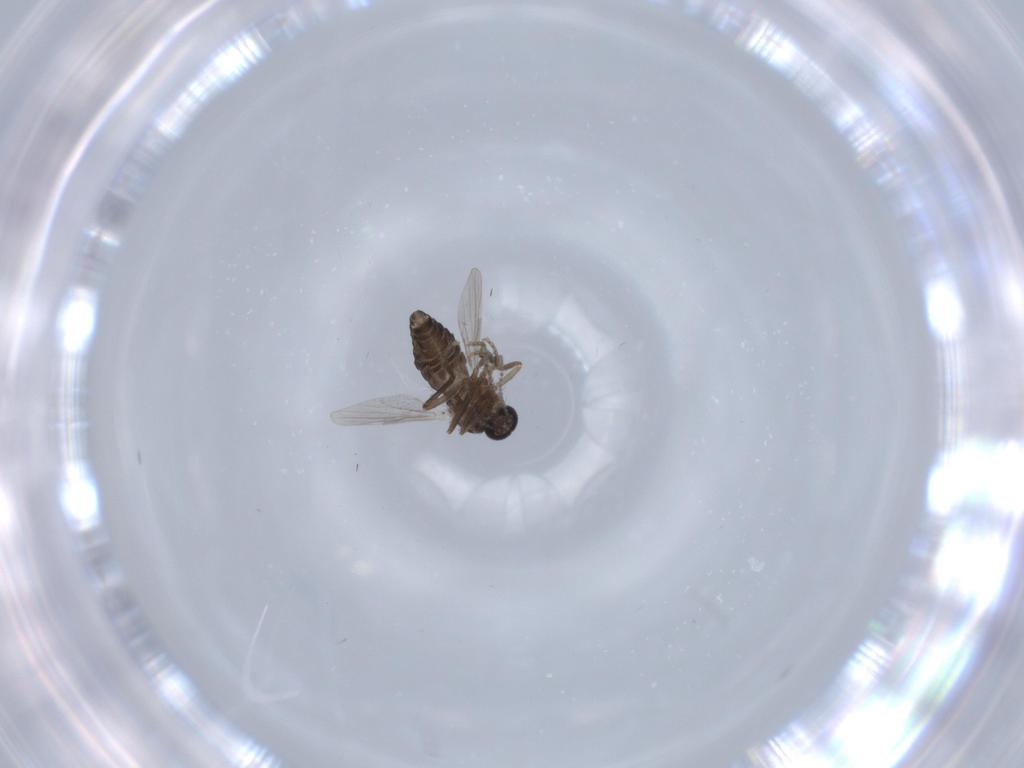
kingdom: Animalia
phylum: Arthropoda
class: Insecta
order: Diptera
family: Ceratopogonidae
